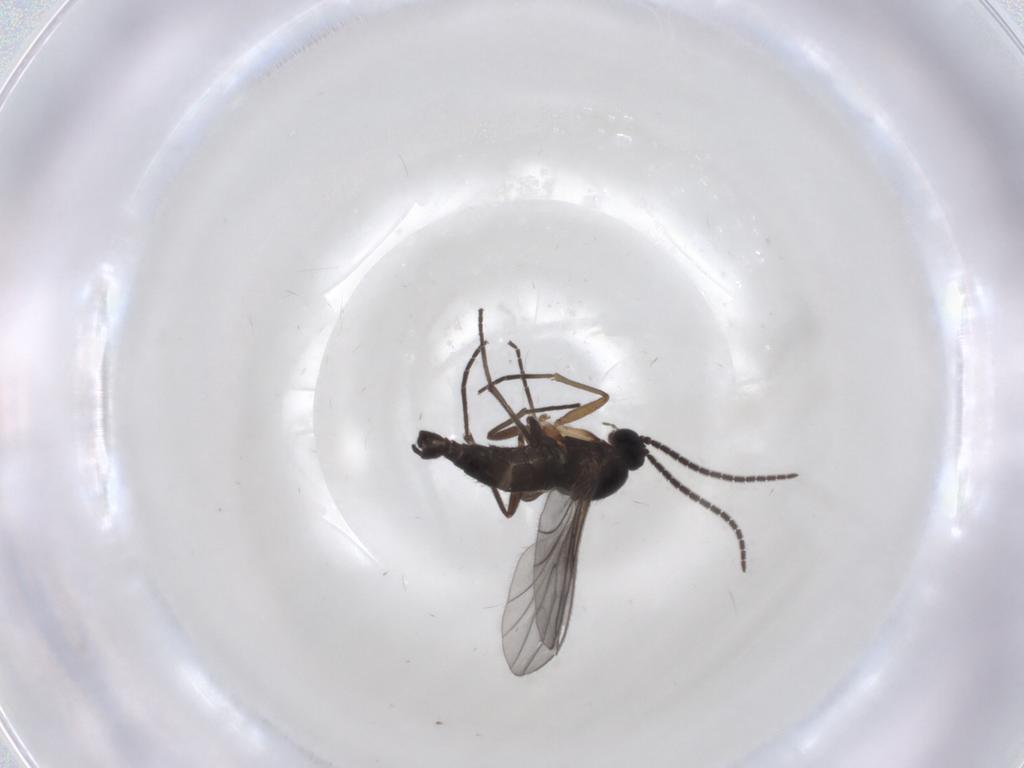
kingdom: Animalia
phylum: Arthropoda
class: Insecta
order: Diptera
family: Sciaridae
